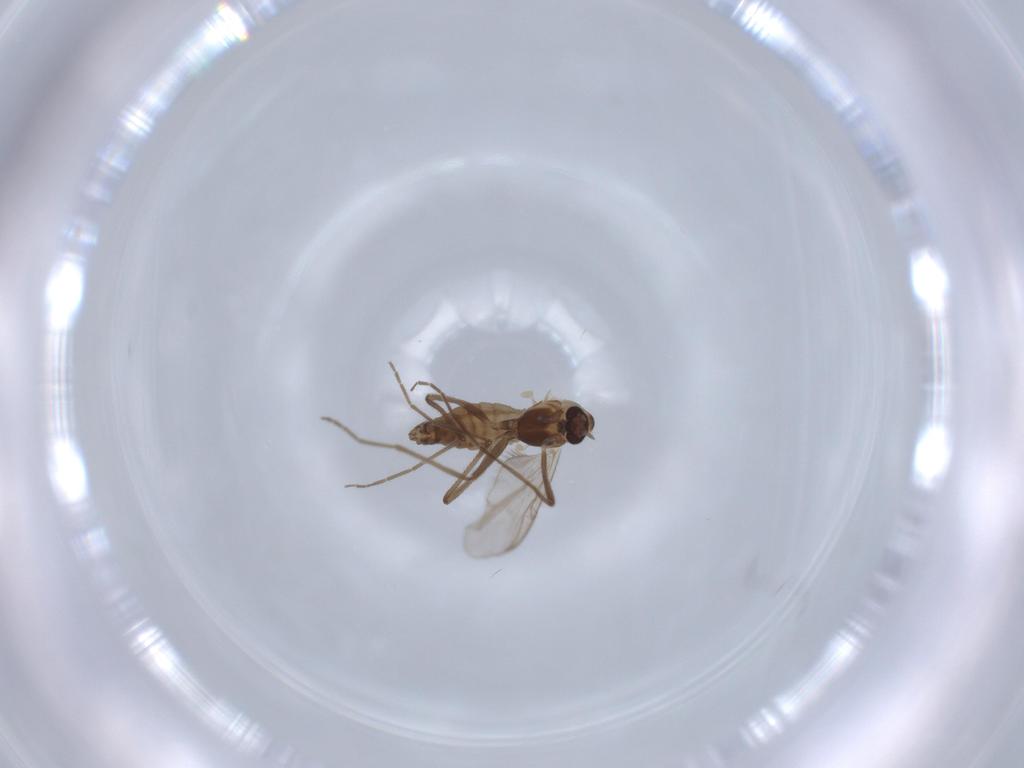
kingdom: Animalia
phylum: Arthropoda
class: Insecta
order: Diptera
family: Chironomidae
